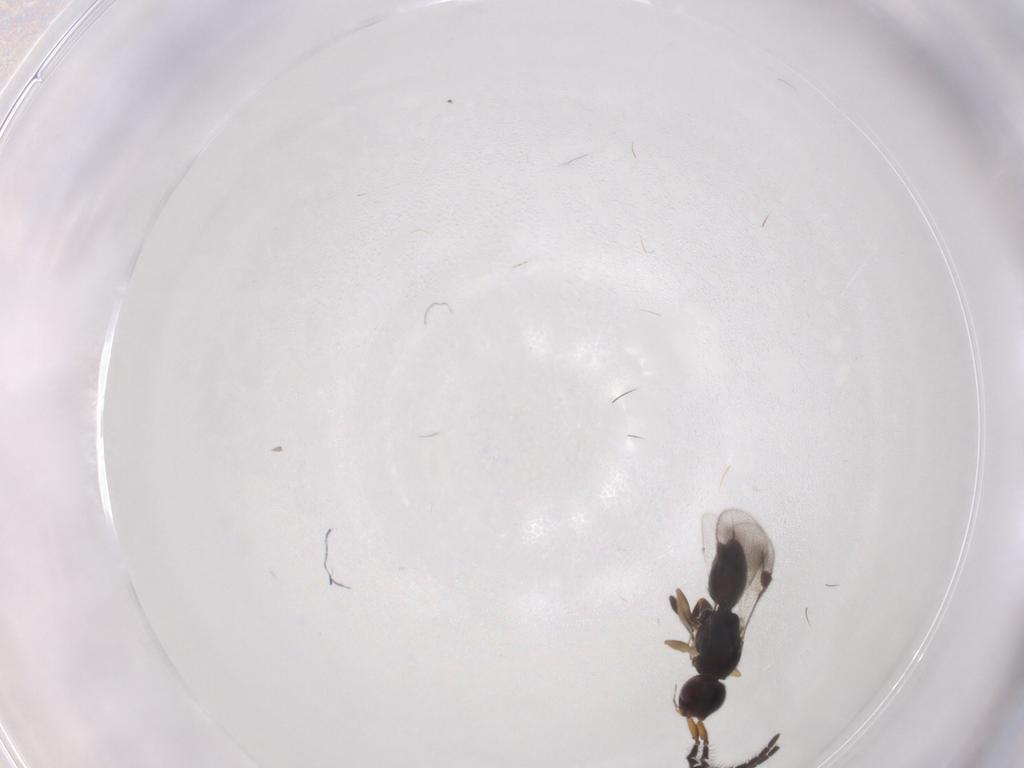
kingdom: Animalia
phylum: Arthropoda
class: Insecta
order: Hymenoptera
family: Megaspilidae
